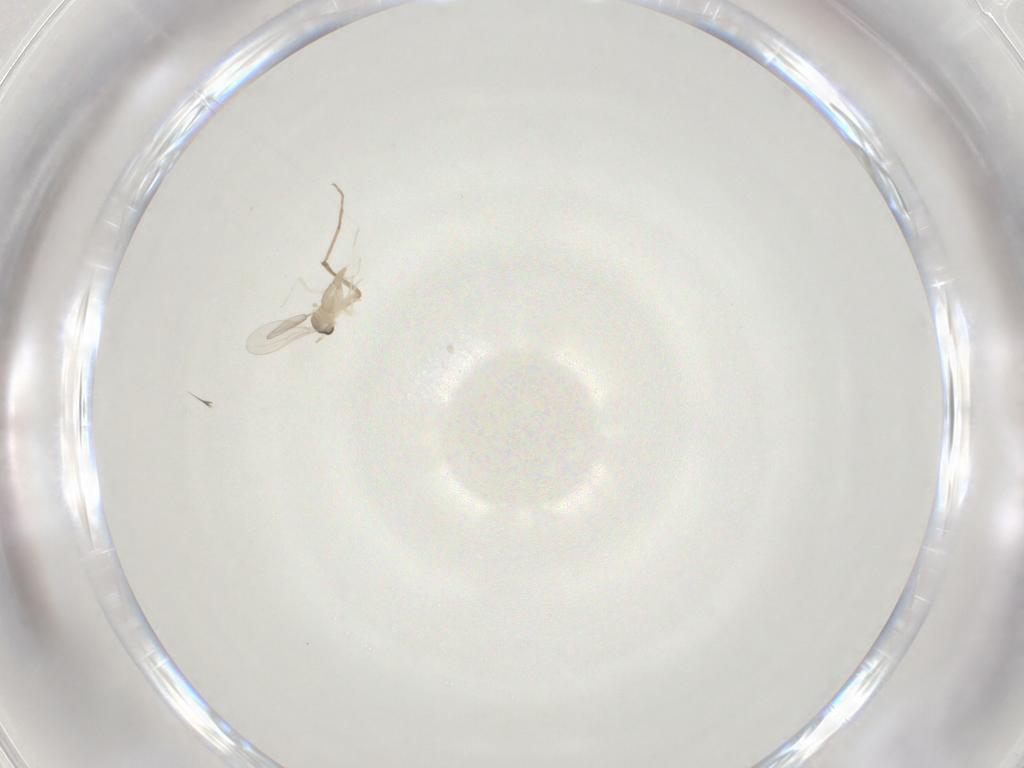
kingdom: Animalia
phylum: Arthropoda
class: Insecta
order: Diptera
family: Cecidomyiidae
